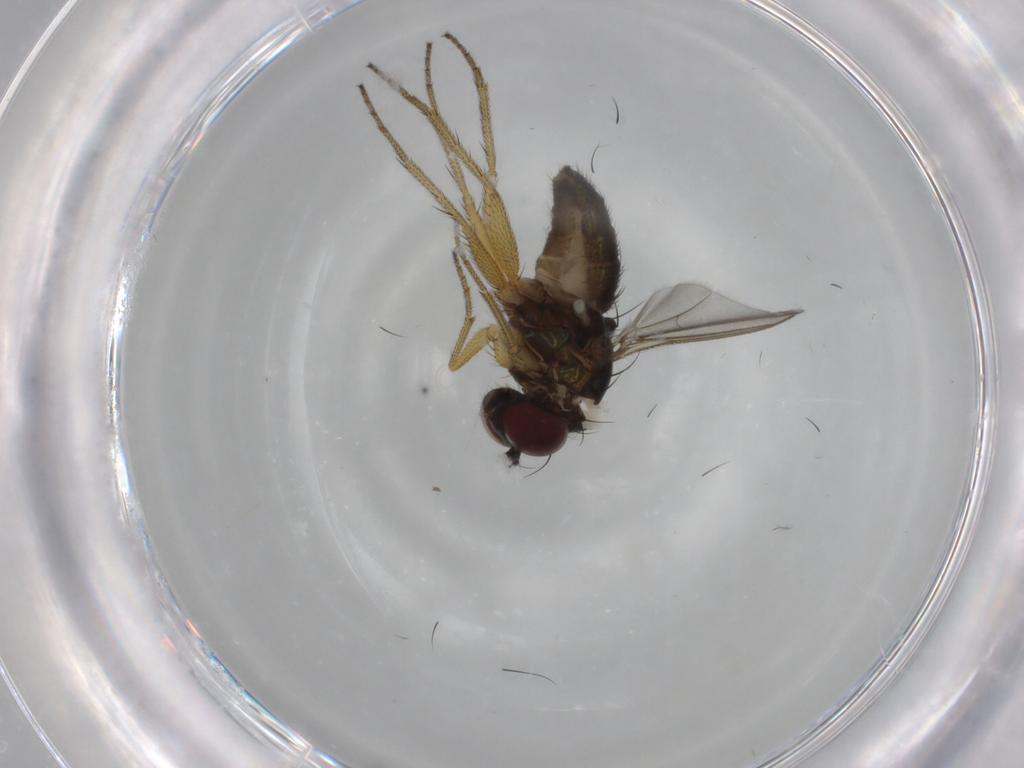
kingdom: Animalia
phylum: Arthropoda
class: Insecta
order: Diptera
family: Dolichopodidae
